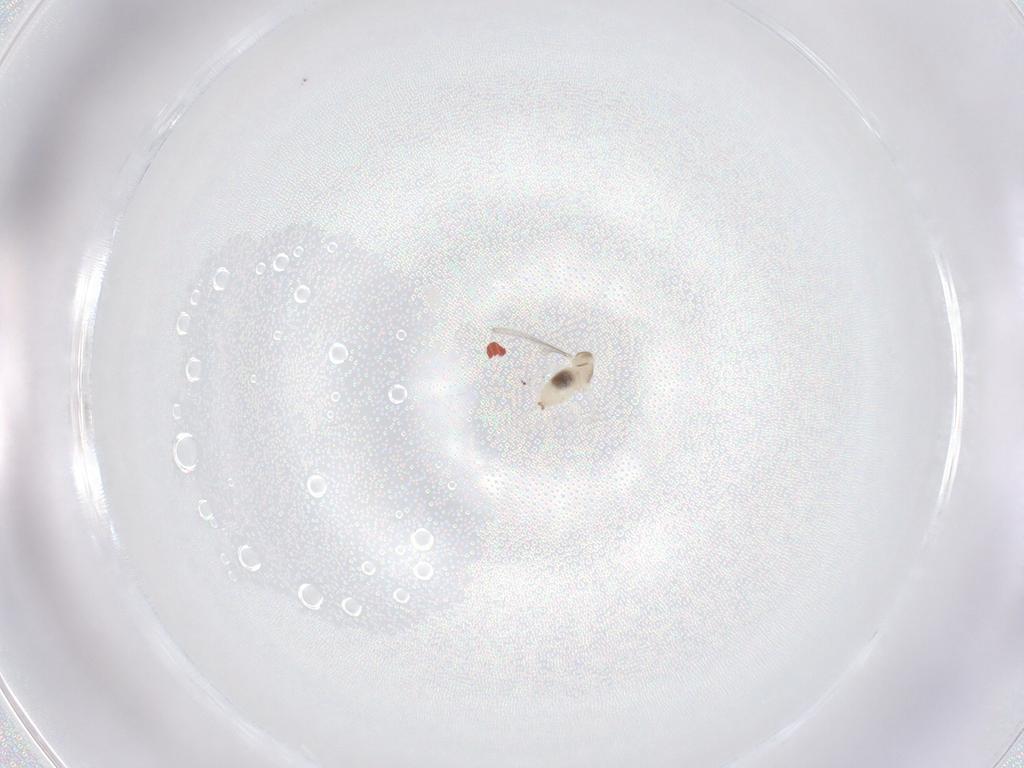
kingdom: Animalia
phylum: Arthropoda
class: Insecta
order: Diptera
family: Cecidomyiidae
